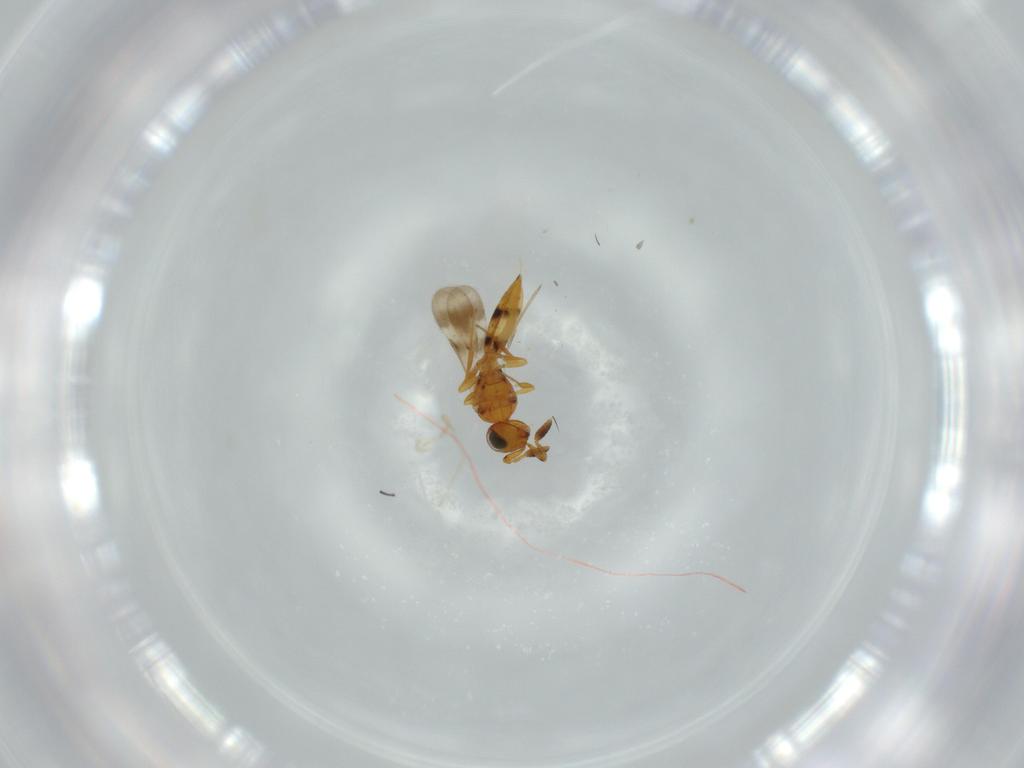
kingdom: Animalia
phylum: Arthropoda
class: Insecta
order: Hymenoptera
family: Scelionidae
